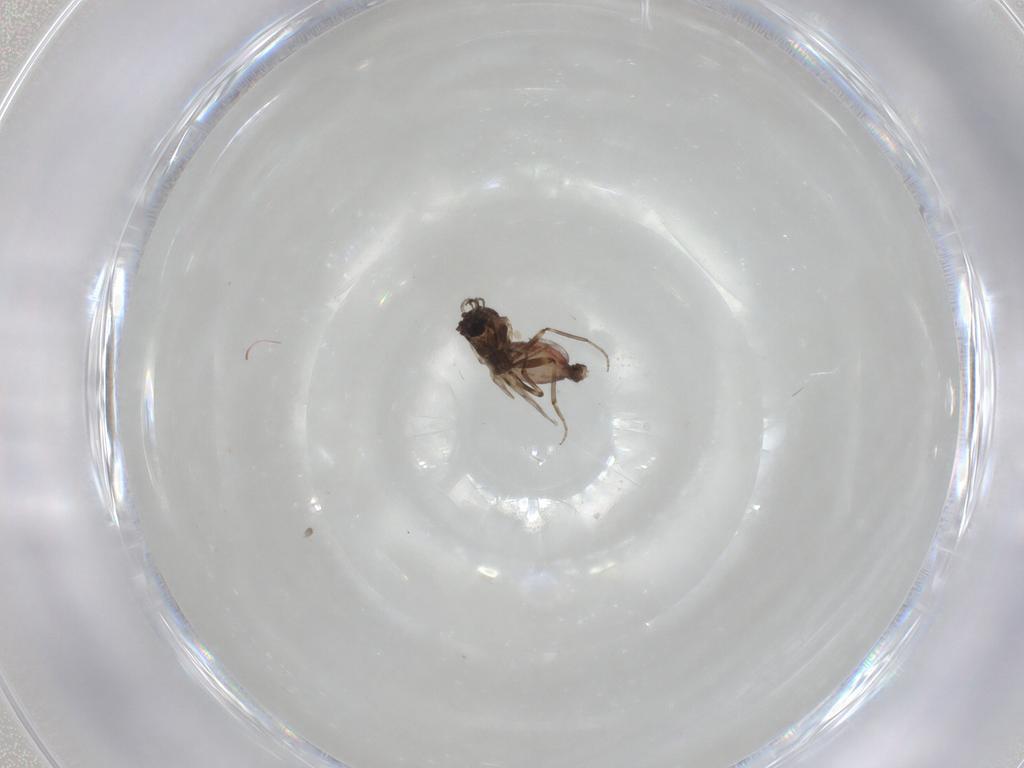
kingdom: Animalia
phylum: Arthropoda
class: Insecta
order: Diptera
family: Ceratopogonidae
